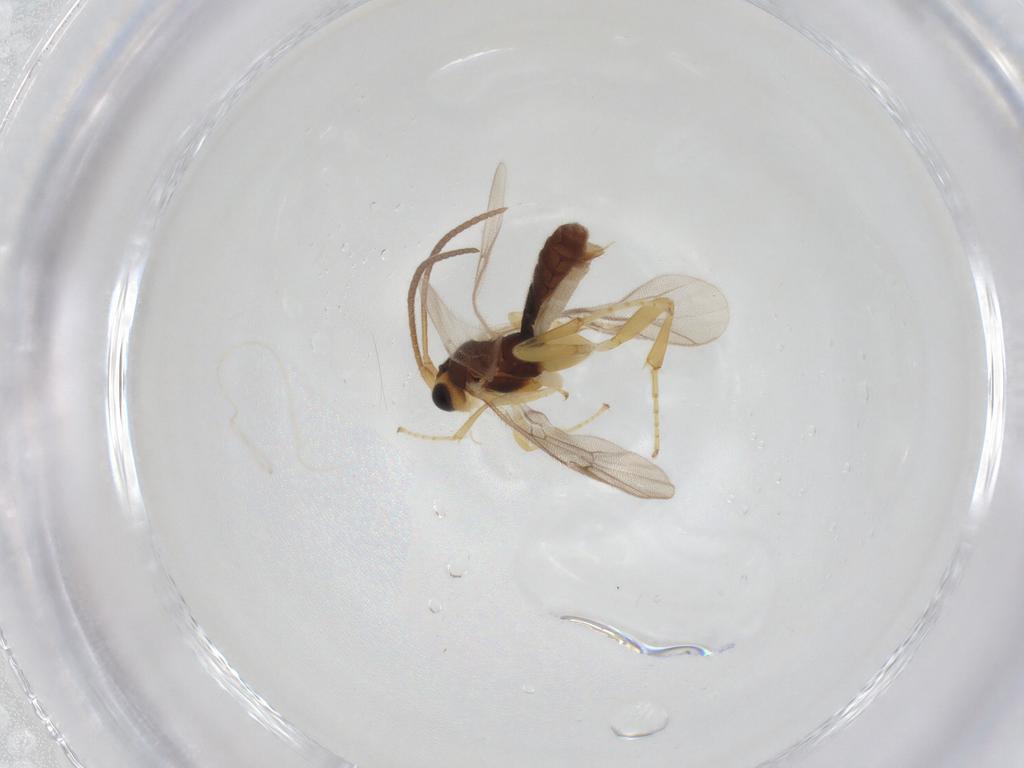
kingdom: Animalia
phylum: Arthropoda
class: Insecta
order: Hymenoptera
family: Ichneumonidae
